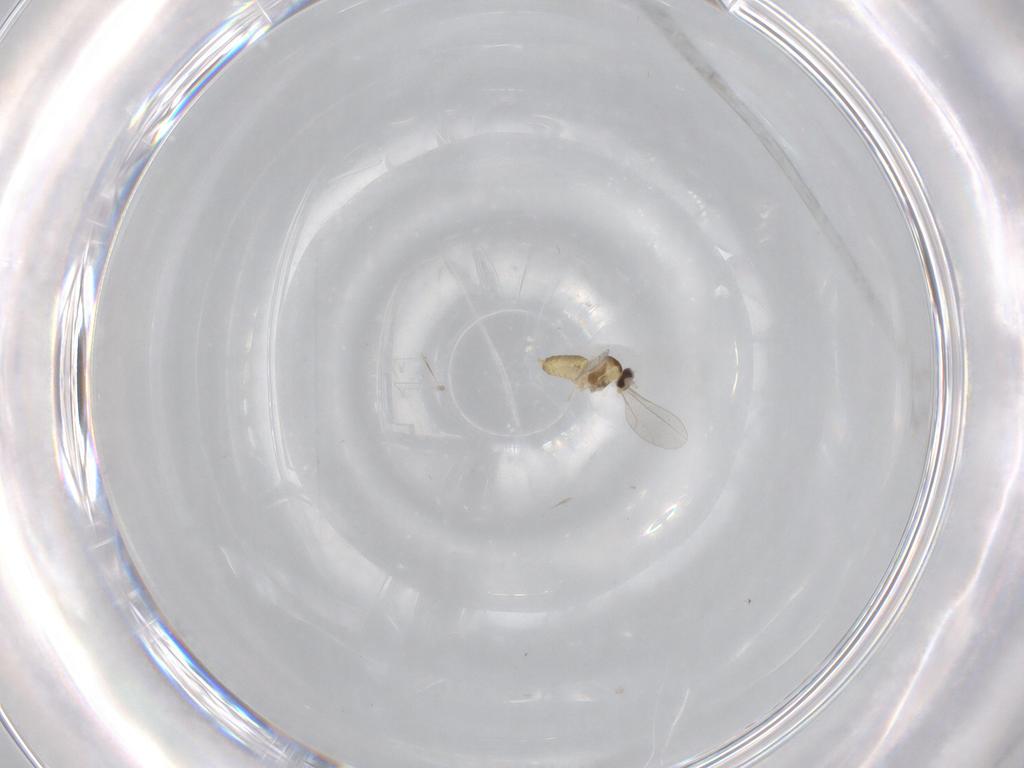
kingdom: Animalia
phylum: Arthropoda
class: Insecta
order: Diptera
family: Cecidomyiidae
